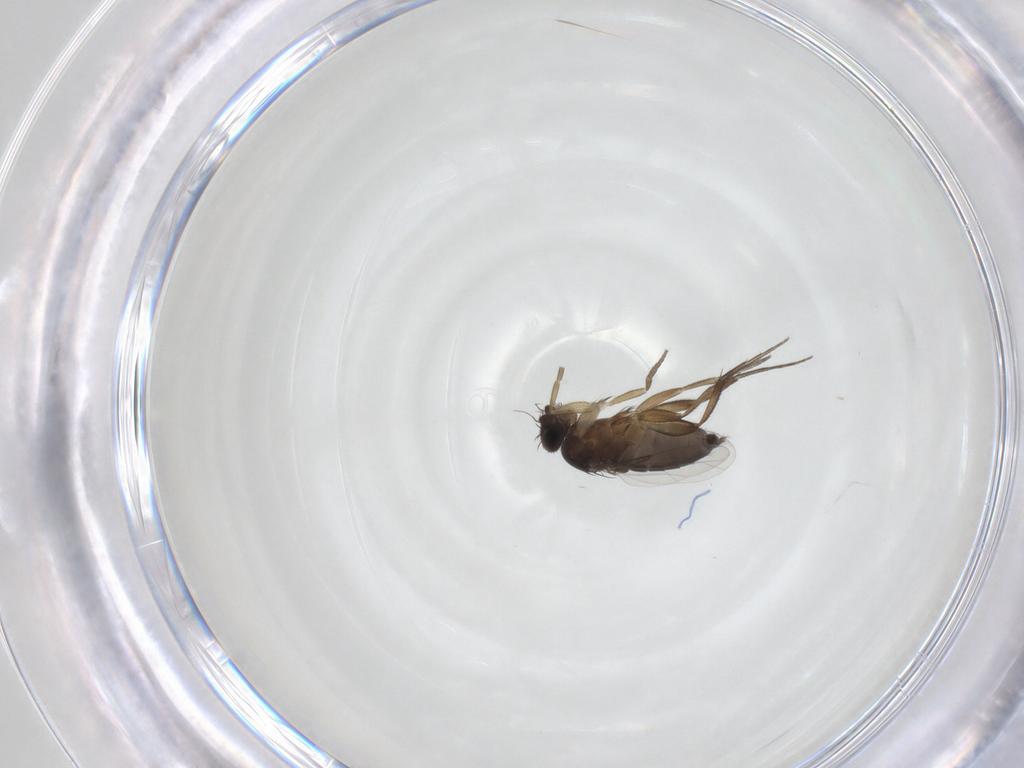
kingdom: Animalia
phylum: Arthropoda
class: Insecta
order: Diptera
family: Phoridae
